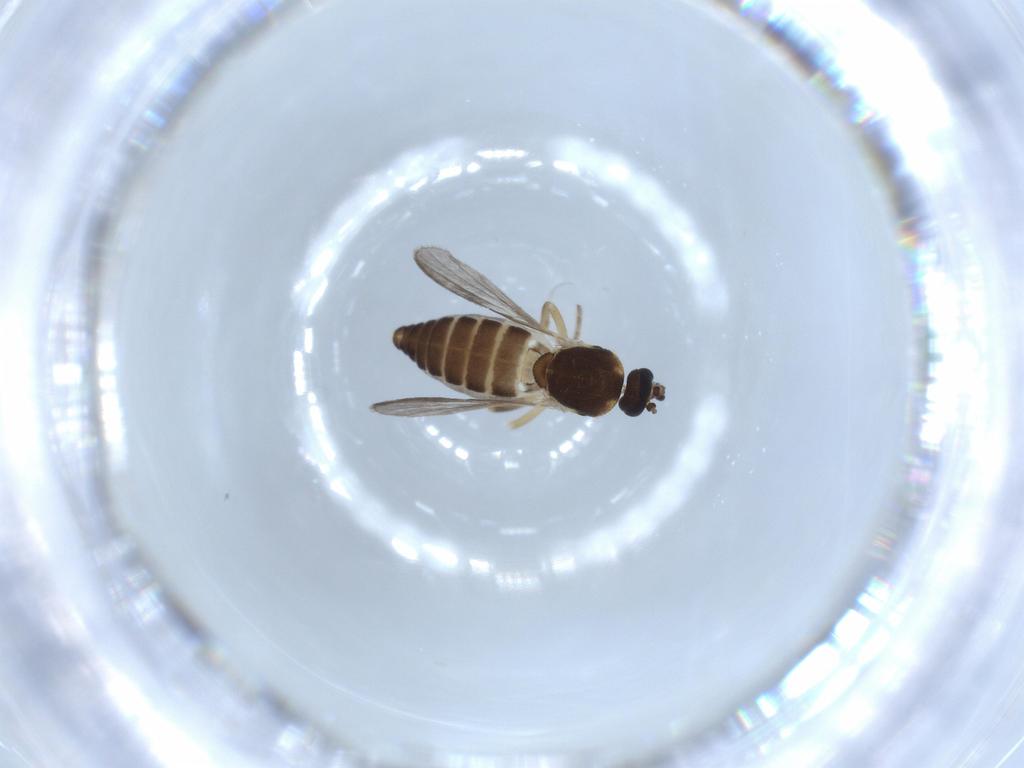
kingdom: Animalia
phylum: Arthropoda
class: Insecta
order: Diptera
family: Ceratopogonidae
